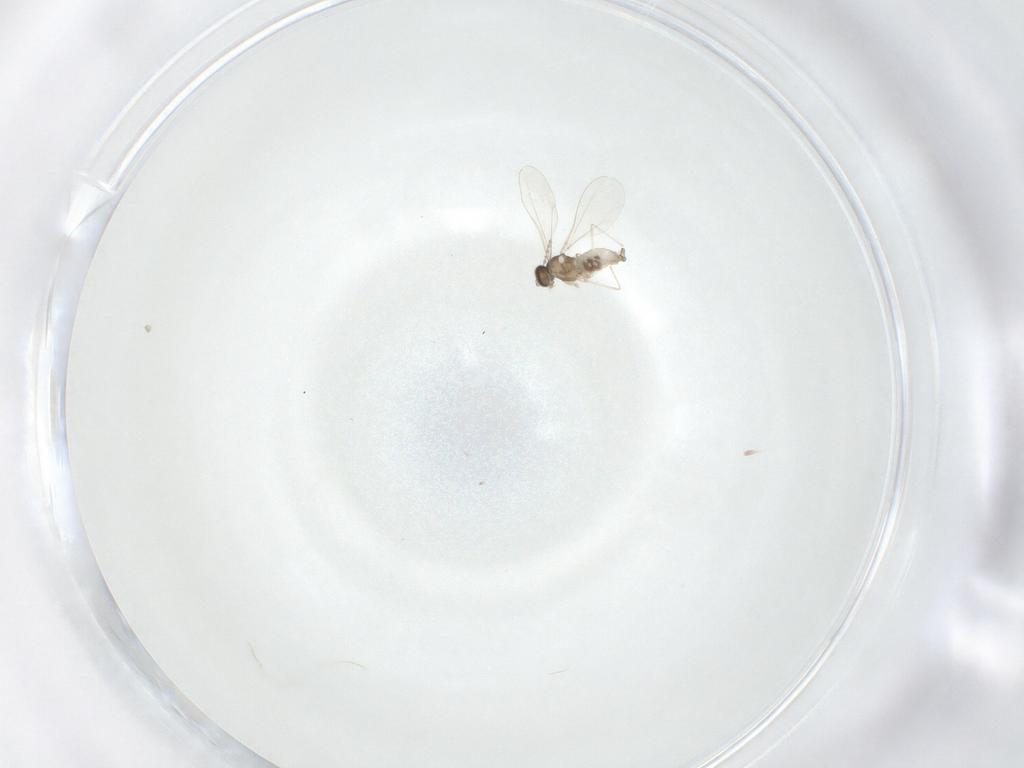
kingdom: Animalia
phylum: Arthropoda
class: Insecta
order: Diptera
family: Cecidomyiidae
